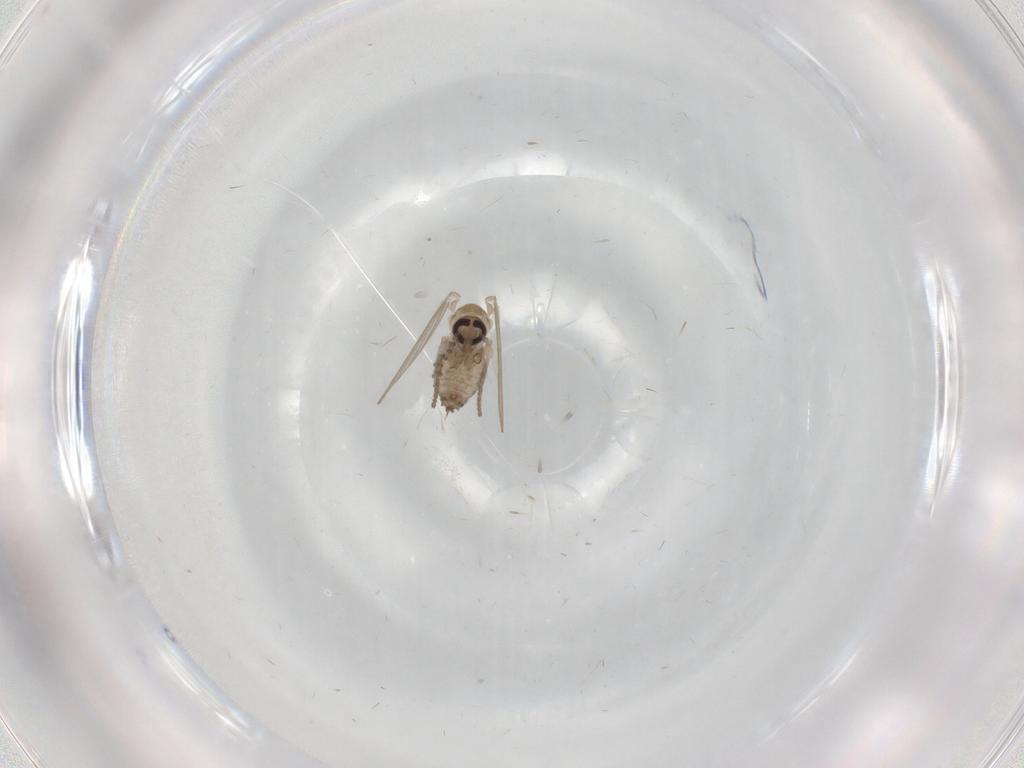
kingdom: Animalia
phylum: Arthropoda
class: Insecta
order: Diptera
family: Psychodidae
